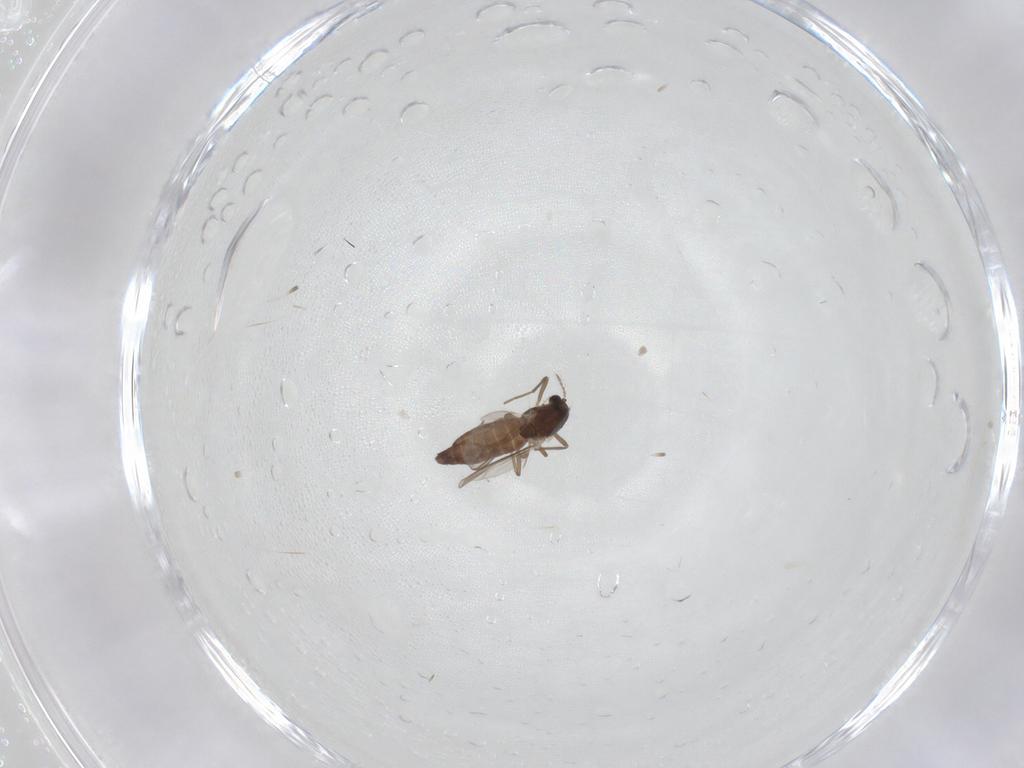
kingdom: Animalia
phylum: Arthropoda
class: Insecta
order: Diptera
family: Chironomidae
